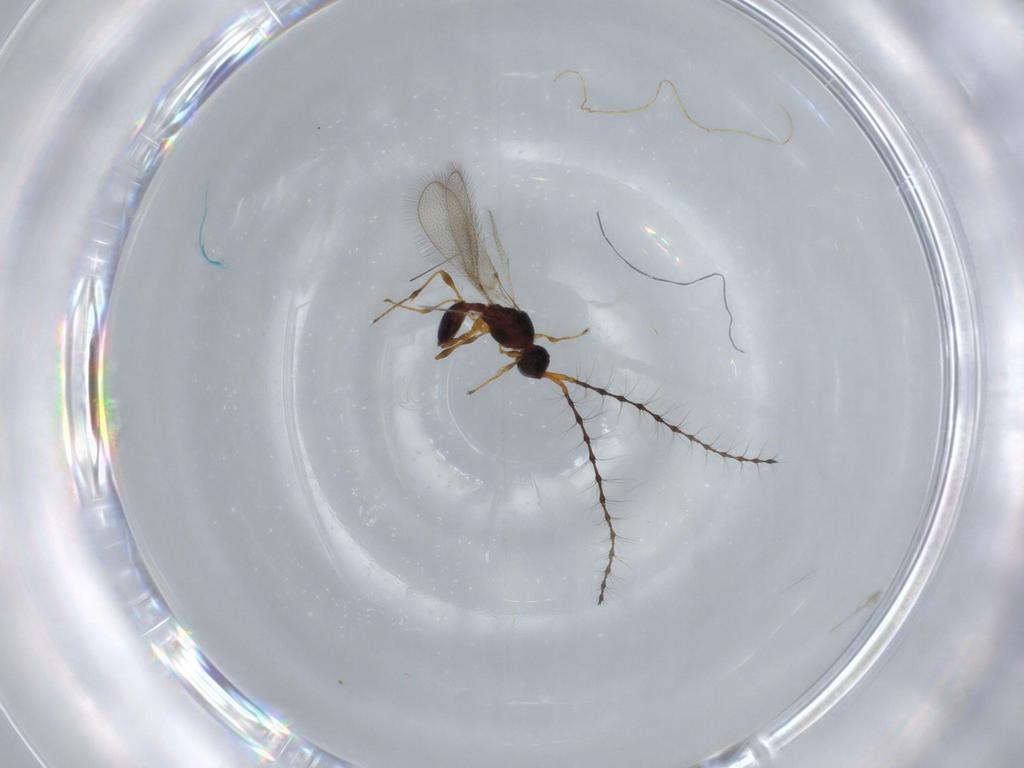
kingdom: Animalia
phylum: Arthropoda
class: Insecta
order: Hymenoptera
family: Diapriidae
